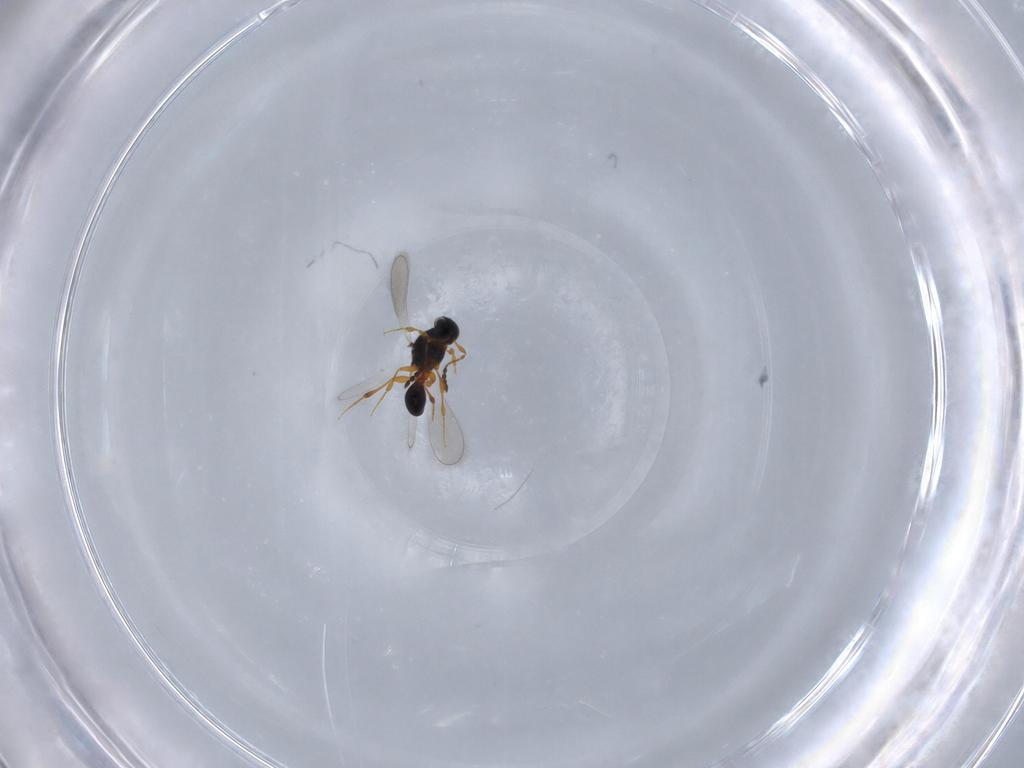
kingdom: Animalia
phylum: Arthropoda
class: Insecta
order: Hymenoptera
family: Platygastridae
